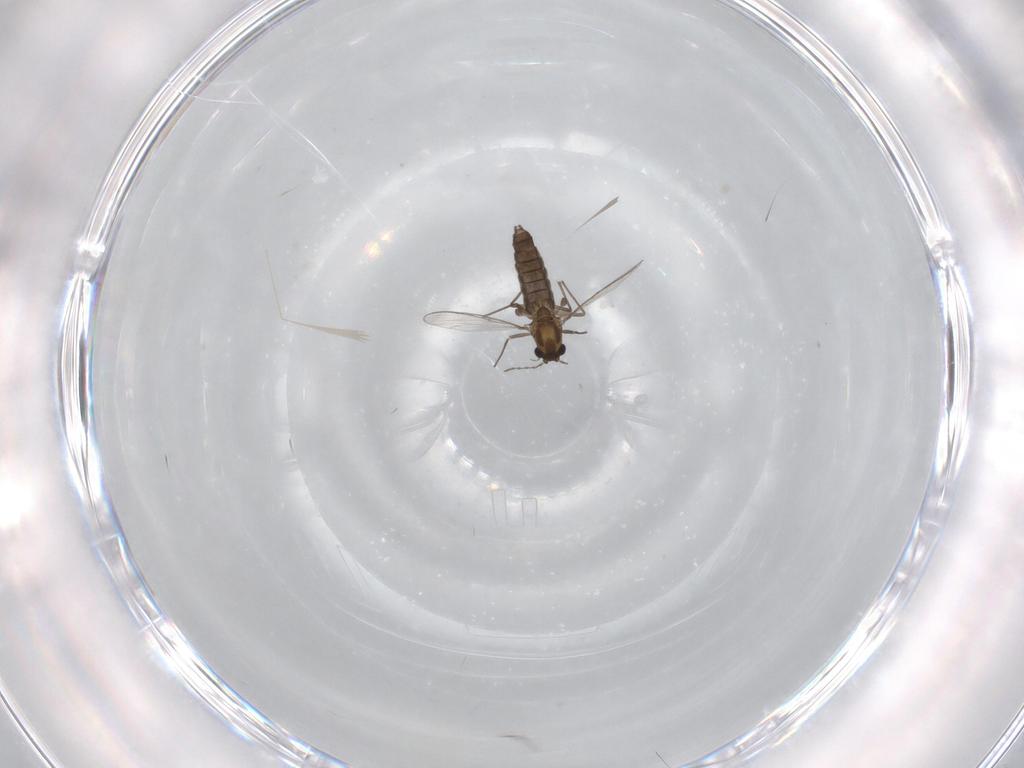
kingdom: Animalia
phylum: Arthropoda
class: Insecta
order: Diptera
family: Chironomidae
